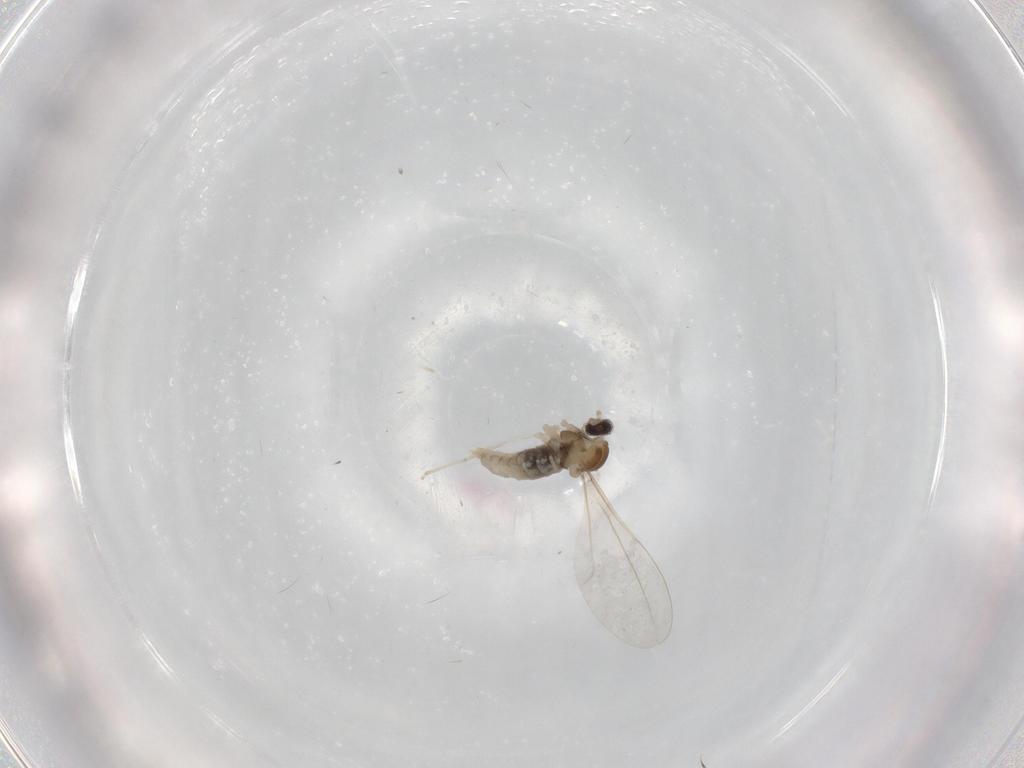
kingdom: Animalia
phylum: Arthropoda
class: Insecta
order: Diptera
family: Cecidomyiidae
